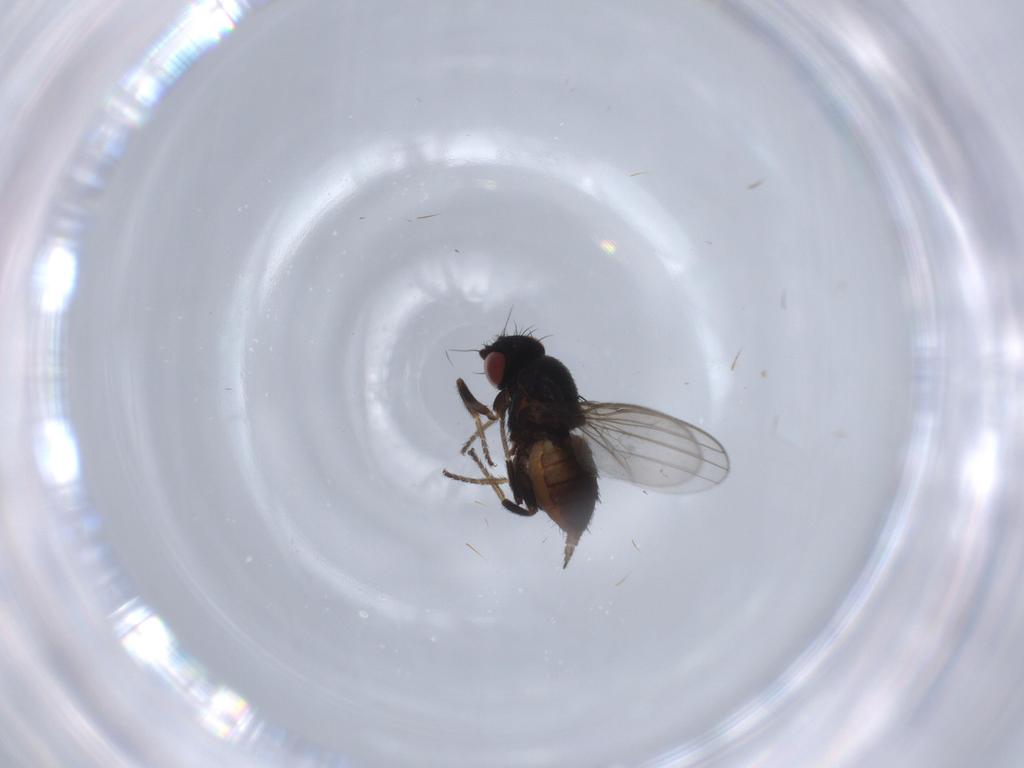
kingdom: Animalia
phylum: Arthropoda
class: Insecta
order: Diptera
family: Milichiidae
